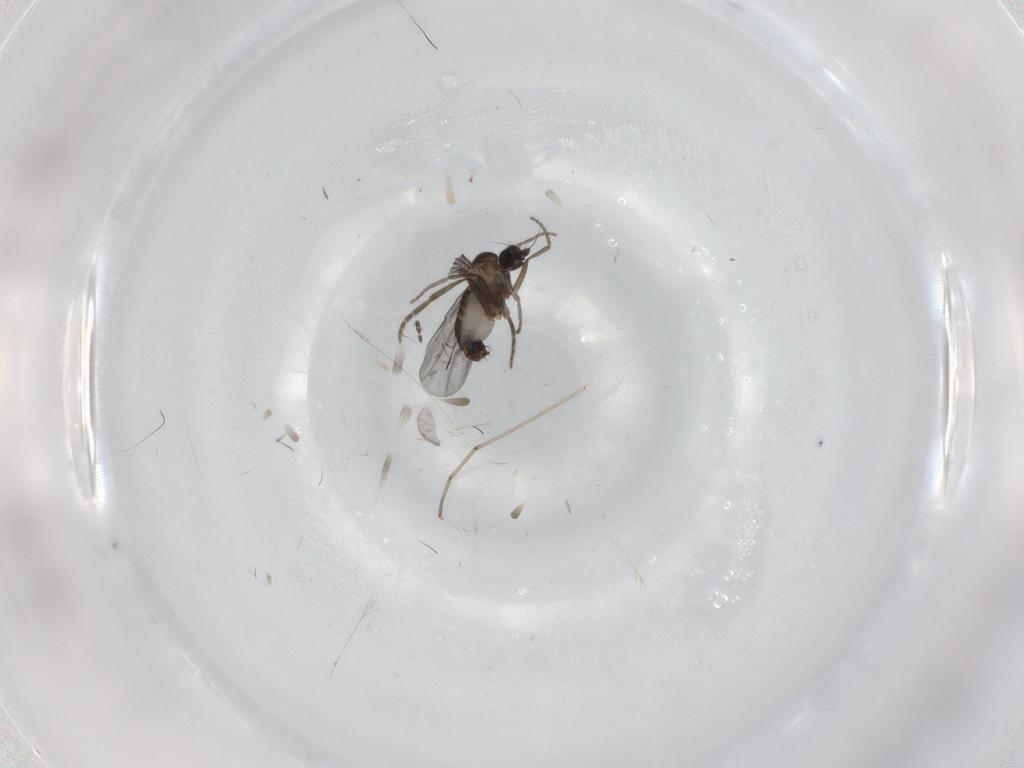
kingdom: Animalia
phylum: Arthropoda
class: Insecta
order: Diptera
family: Phoridae
